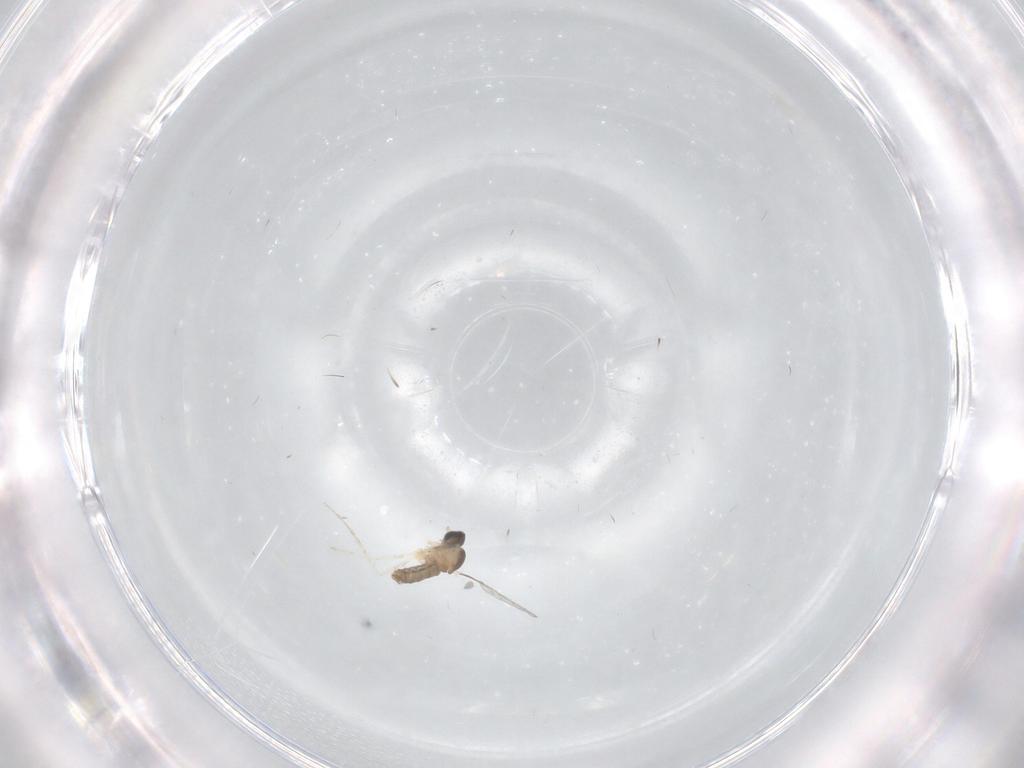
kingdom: Animalia
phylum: Arthropoda
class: Insecta
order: Diptera
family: Chironomidae
